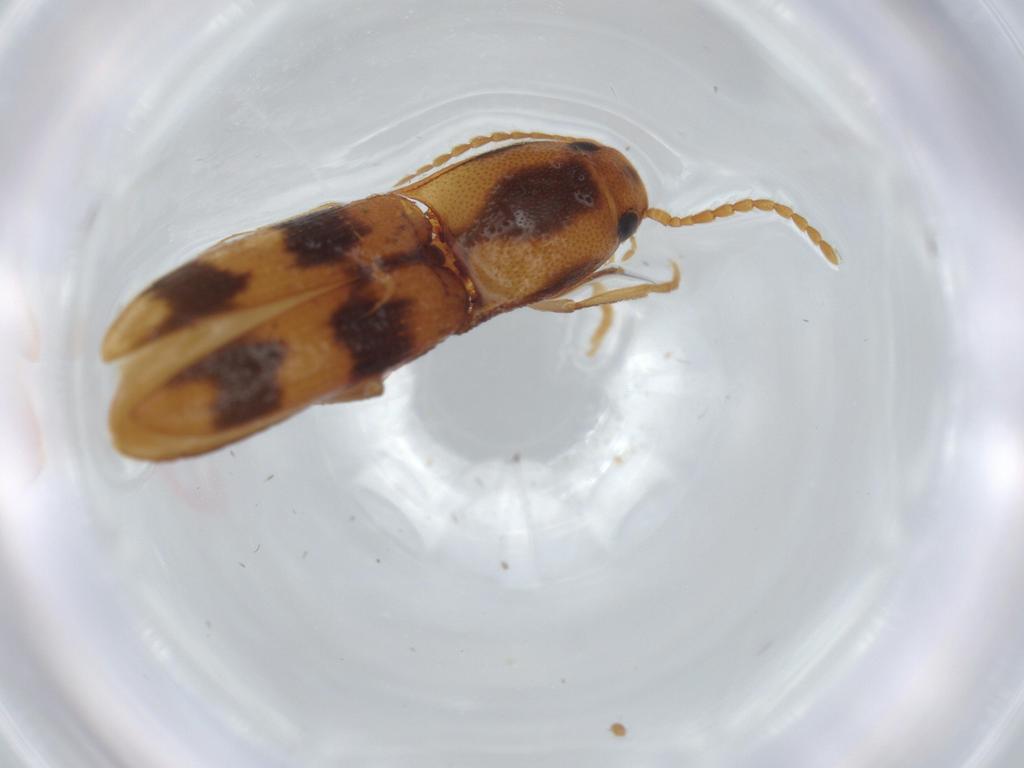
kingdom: Animalia
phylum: Arthropoda
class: Insecta
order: Coleoptera
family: Elateridae
